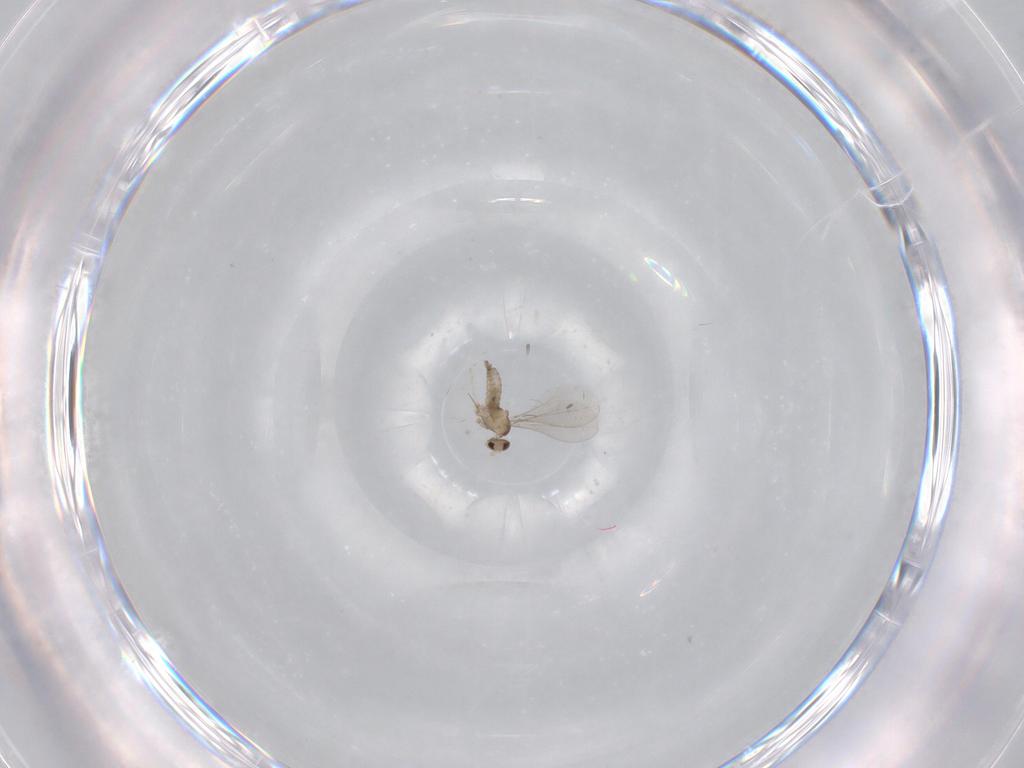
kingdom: Animalia
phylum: Arthropoda
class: Insecta
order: Diptera
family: Cecidomyiidae
